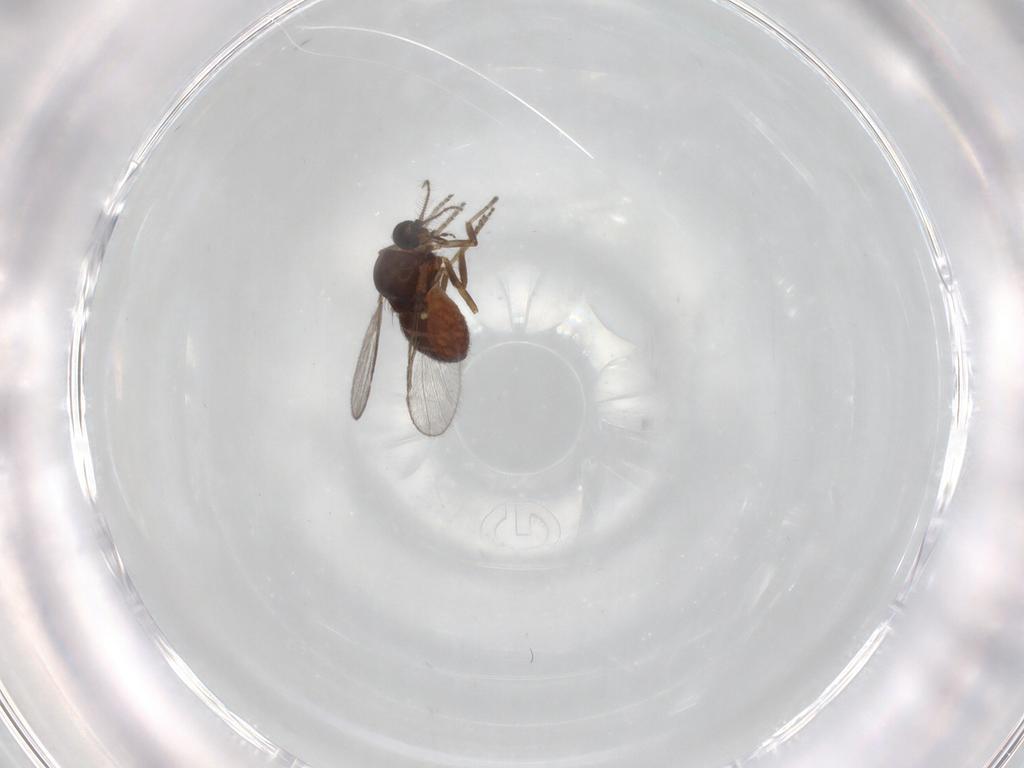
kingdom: Animalia
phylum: Arthropoda
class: Insecta
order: Diptera
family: Ceratopogonidae
